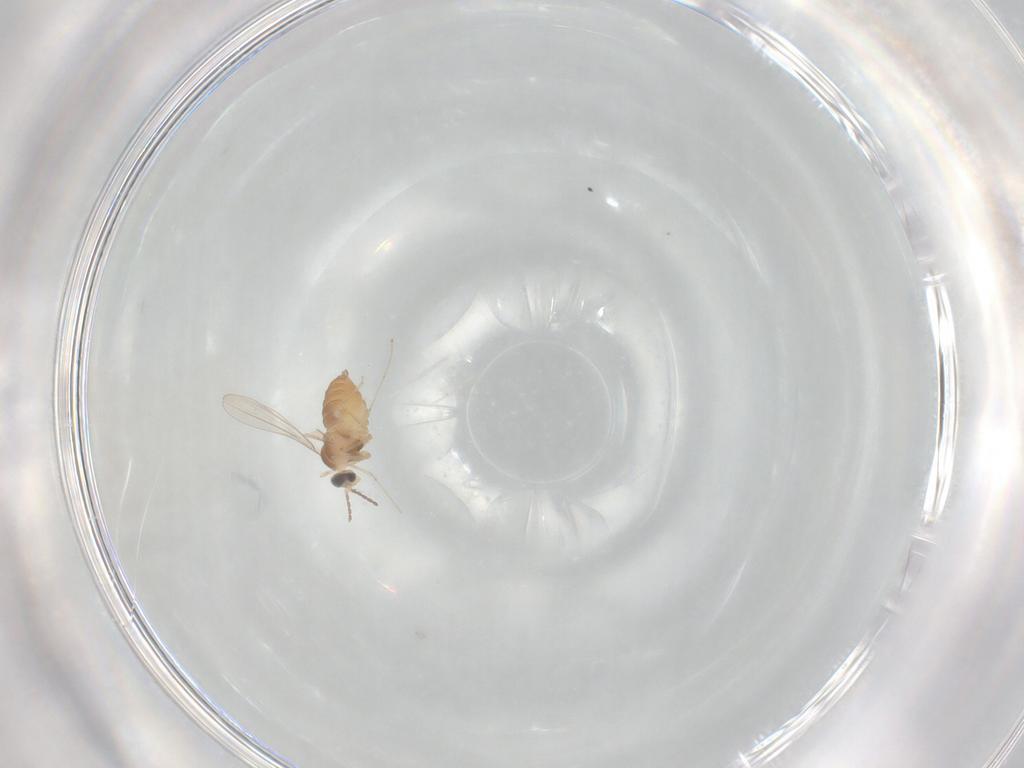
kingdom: Animalia
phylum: Arthropoda
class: Insecta
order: Diptera
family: Cecidomyiidae
